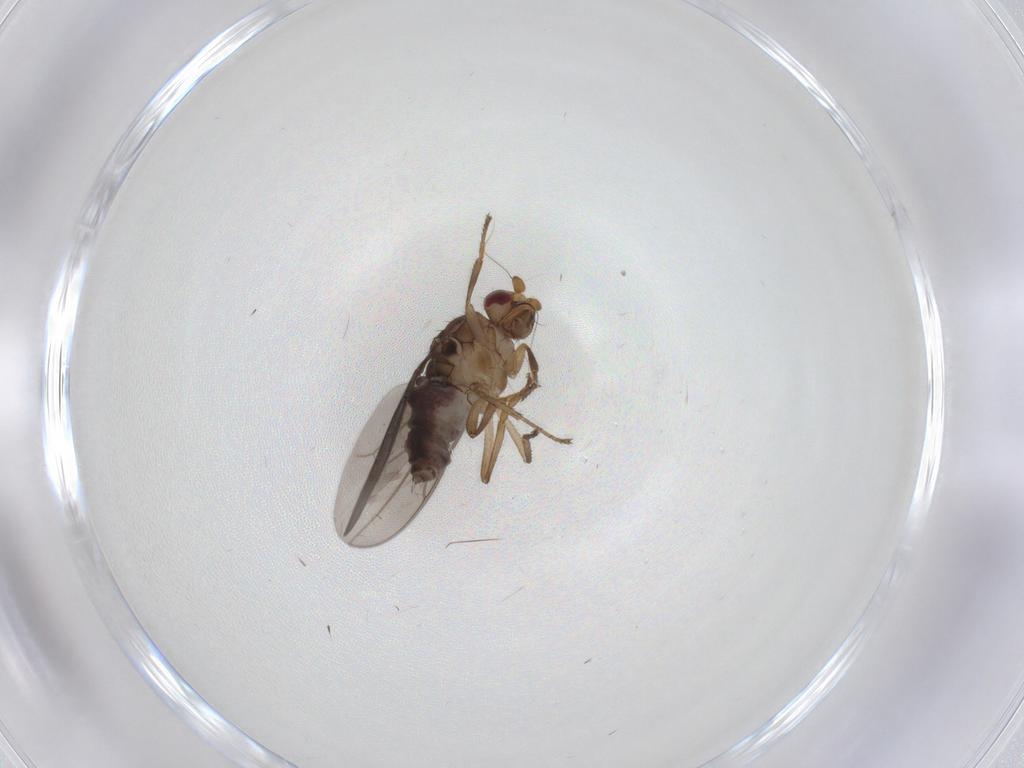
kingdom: Animalia
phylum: Arthropoda
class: Insecta
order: Diptera
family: Sphaeroceridae
